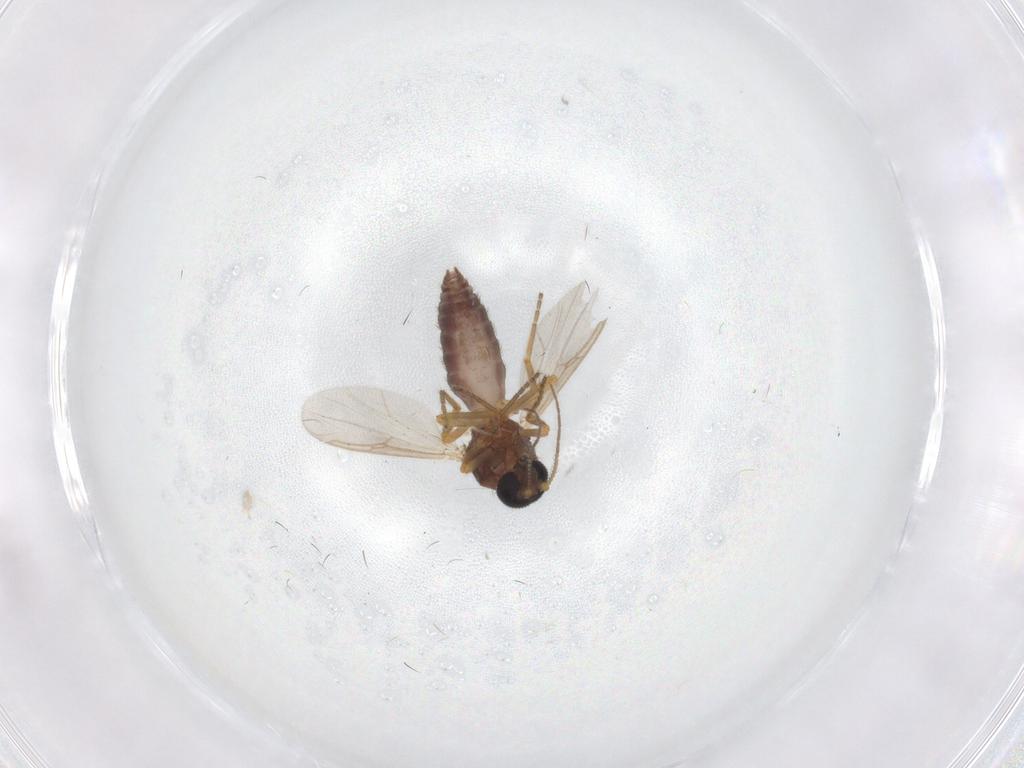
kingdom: Animalia
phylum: Arthropoda
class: Insecta
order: Diptera
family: Ceratopogonidae
